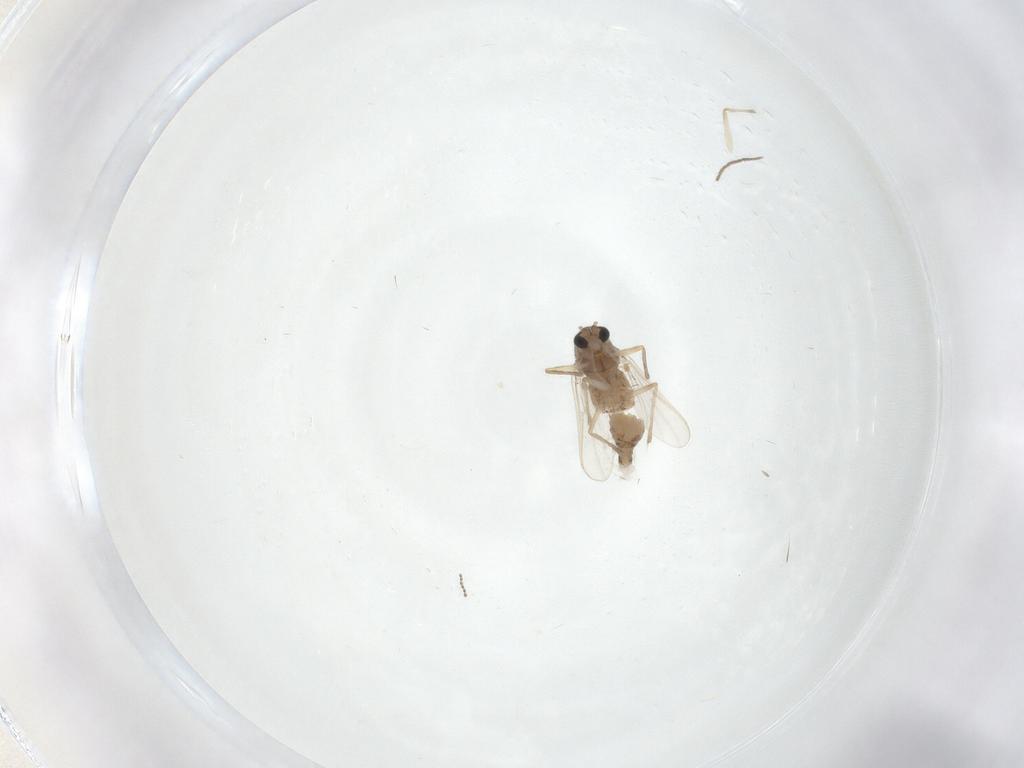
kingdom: Animalia
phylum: Arthropoda
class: Insecta
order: Diptera
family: Chironomidae
